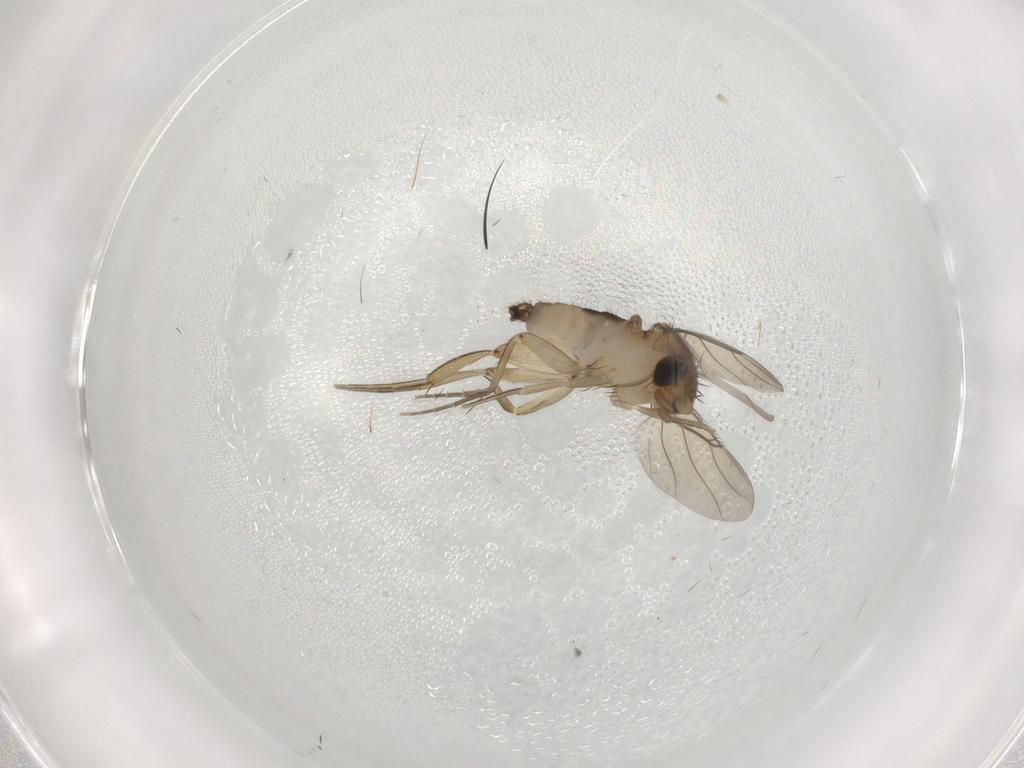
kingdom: Animalia
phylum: Arthropoda
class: Insecta
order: Diptera
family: Phoridae
